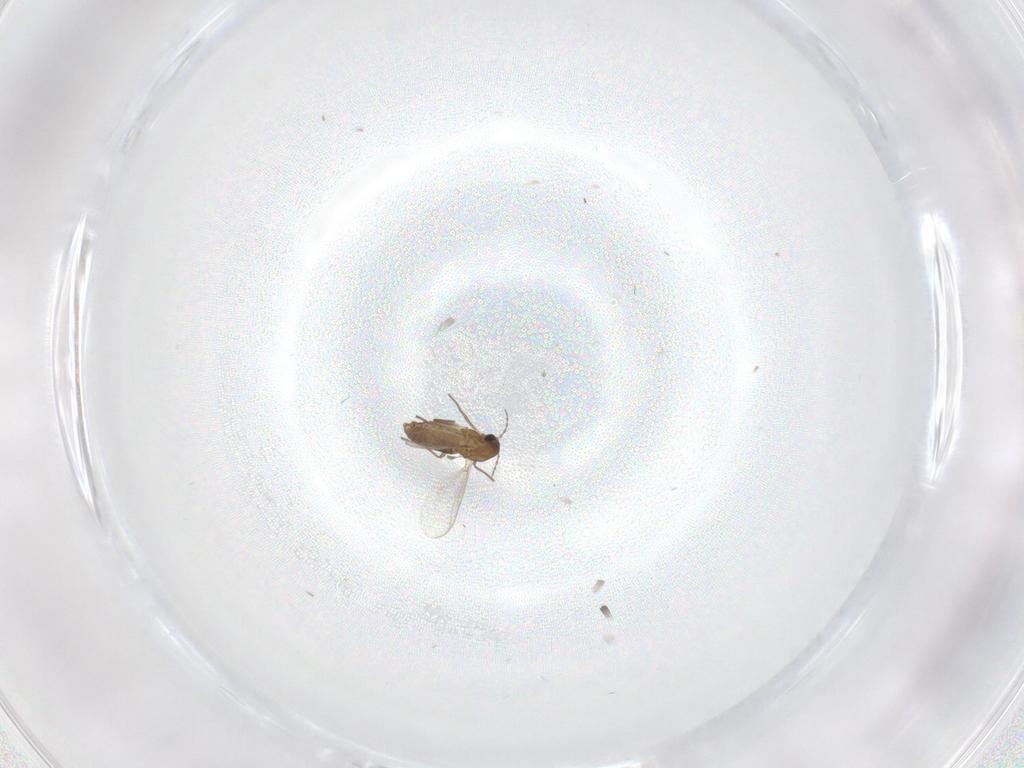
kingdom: Animalia
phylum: Arthropoda
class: Insecta
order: Diptera
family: Chironomidae
